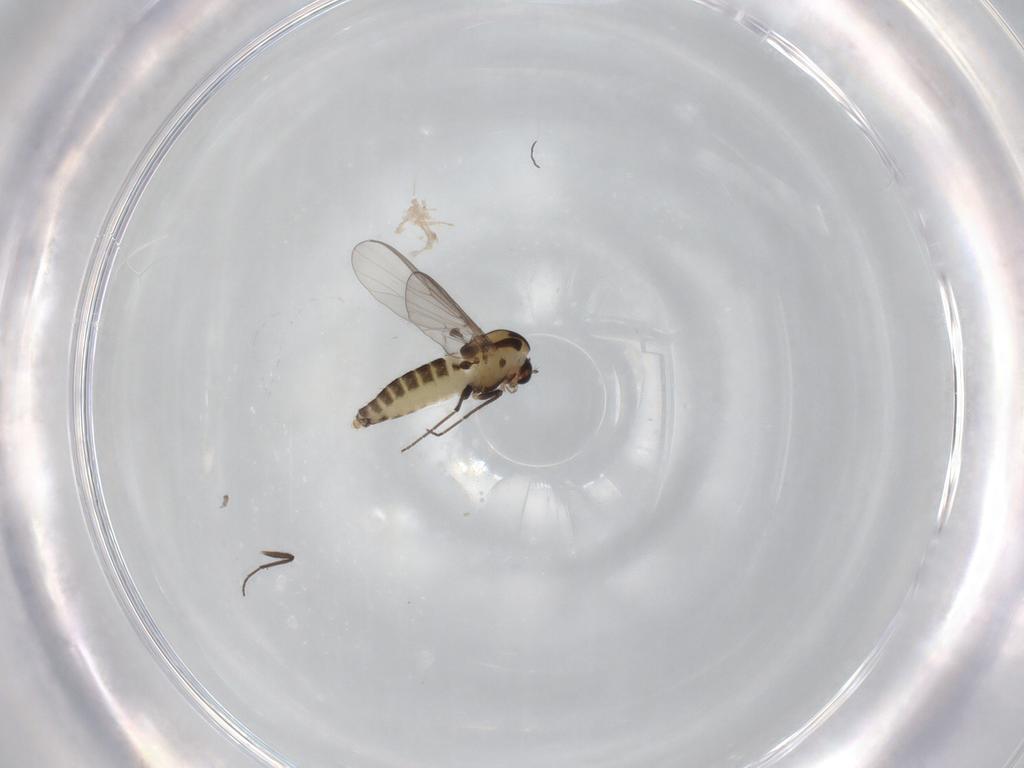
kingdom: Animalia
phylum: Arthropoda
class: Insecta
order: Diptera
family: Chironomidae
